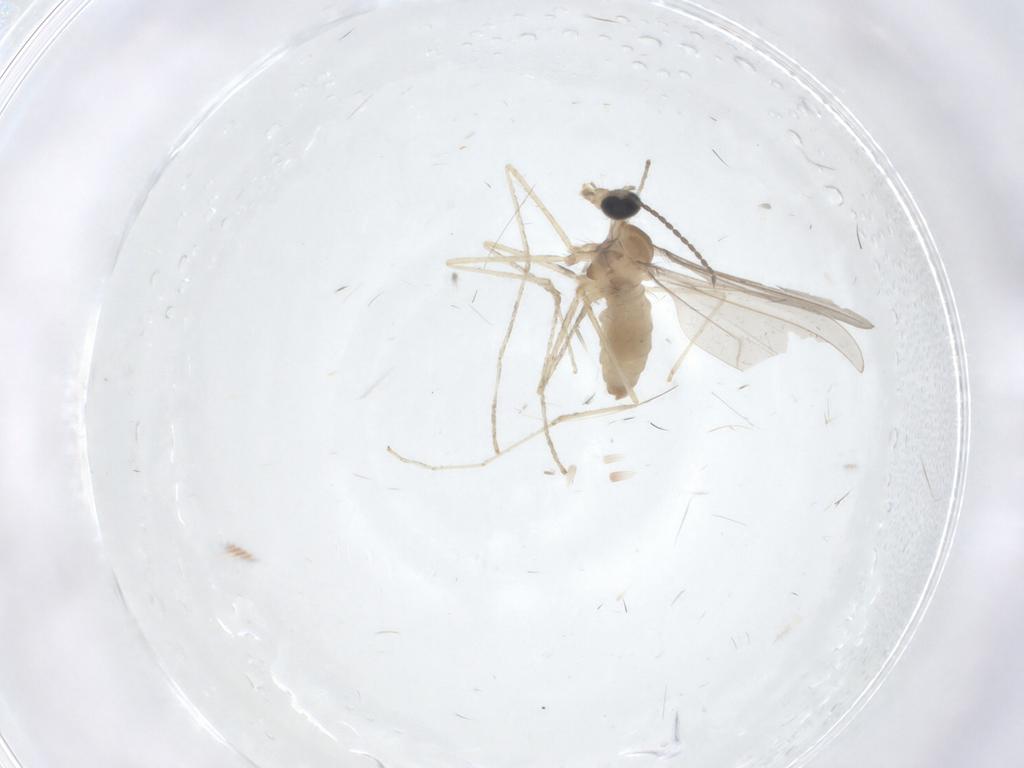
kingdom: Animalia
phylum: Arthropoda
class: Insecta
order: Diptera
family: Cecidomyiidae
